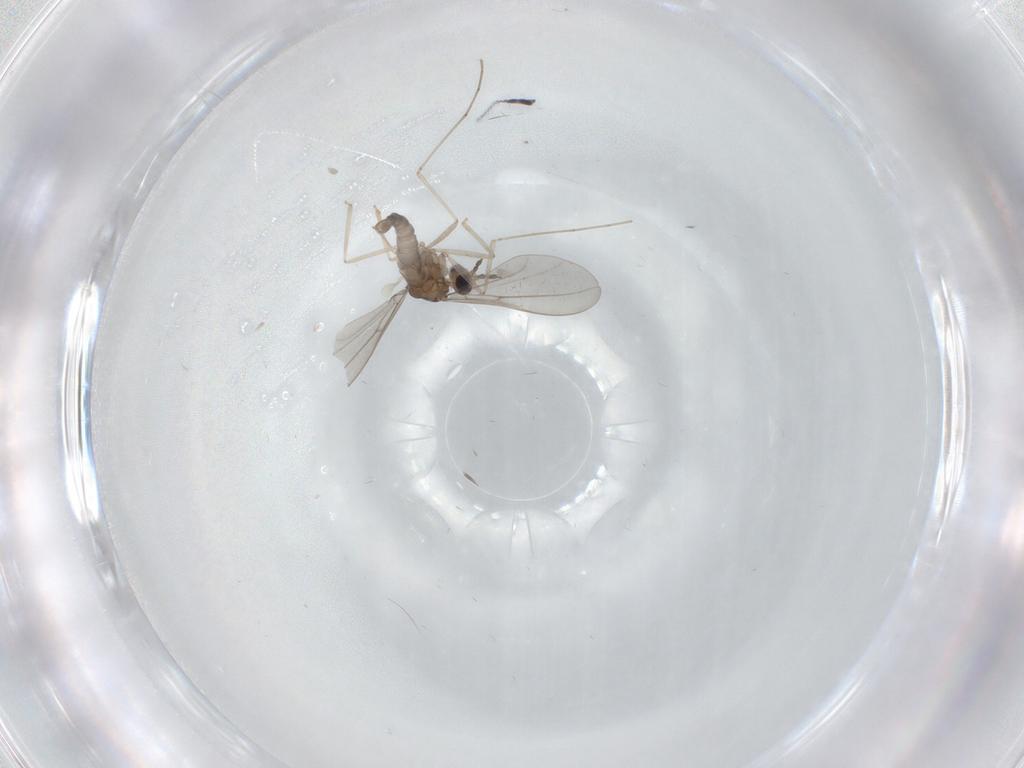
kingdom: Animalia
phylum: Arthropoda
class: Insecta
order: Diptera
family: Cecidomyiidae
